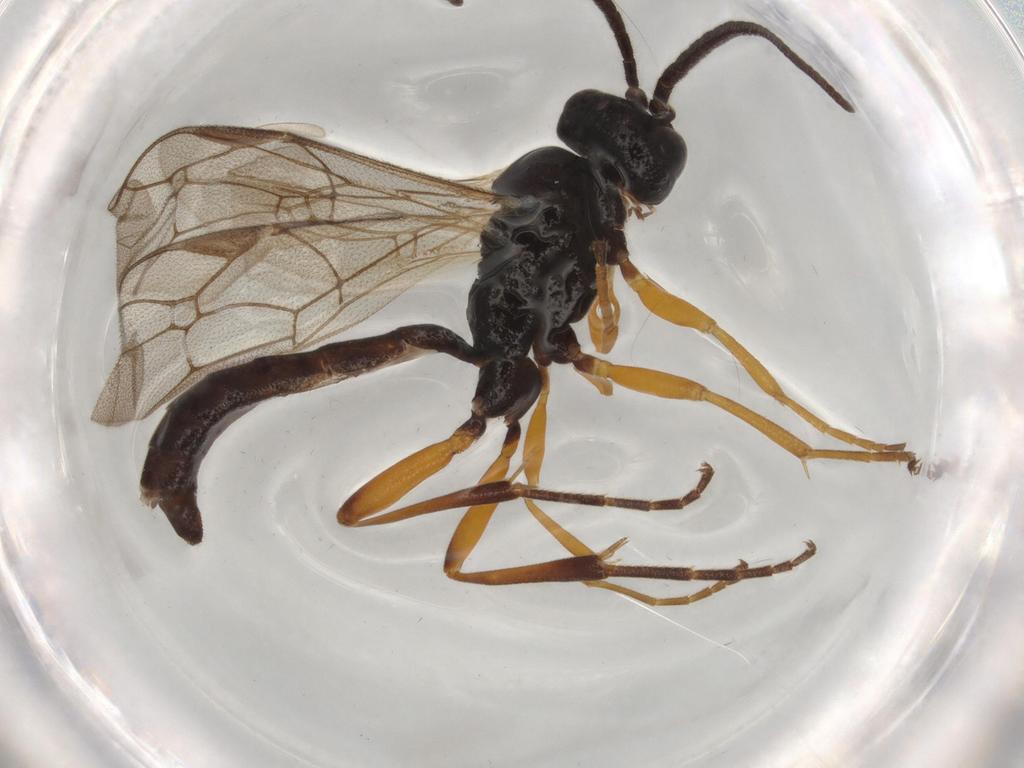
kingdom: Animalia
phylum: Arthropoda
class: Insecta
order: Hymenoptera
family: Ichneumonidae
